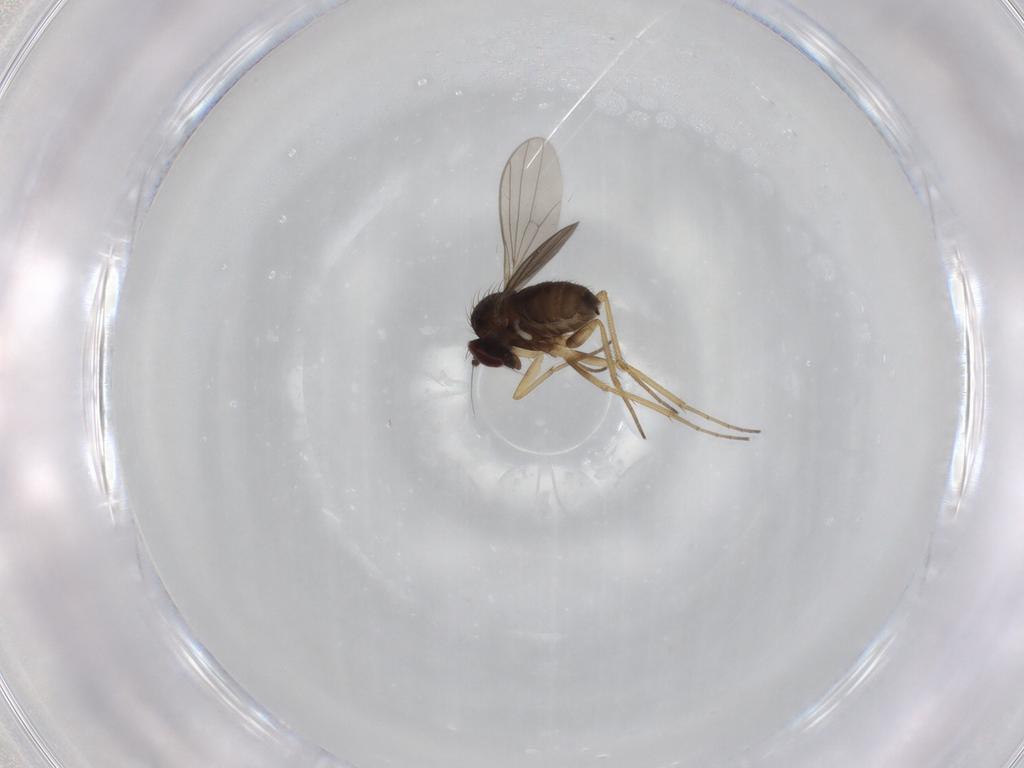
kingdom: Animalia
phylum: Arthropoda
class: Insecta
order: Diptera
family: Dolichopodidae
